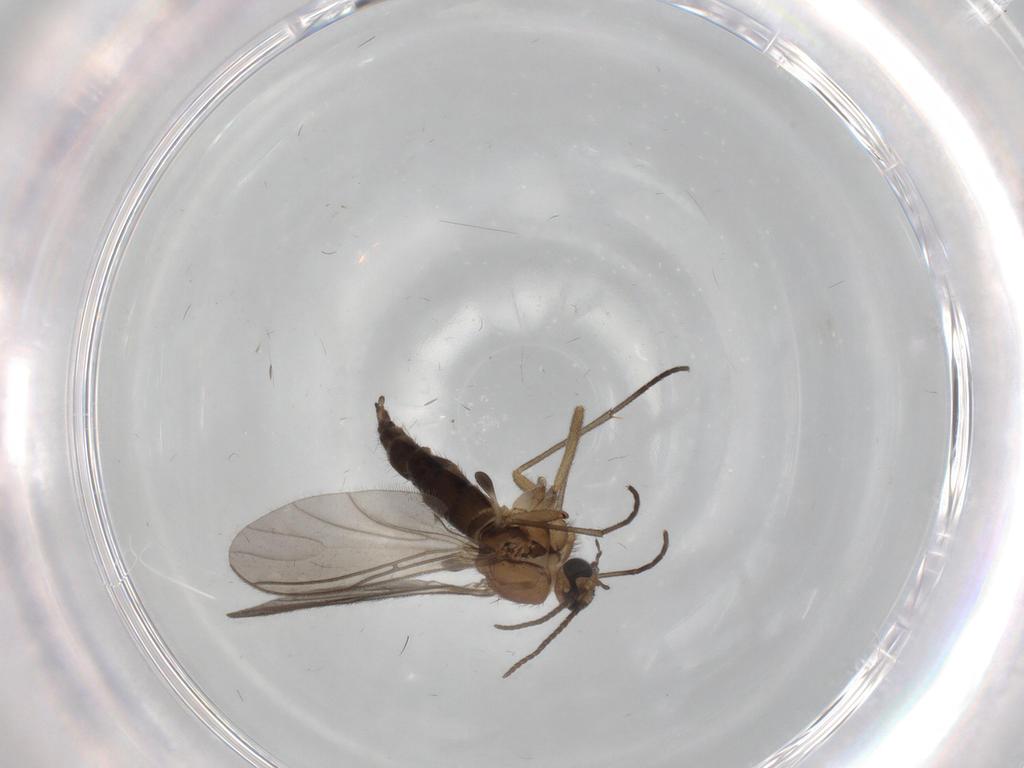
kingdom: Animalia
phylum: Arthropoda
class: Insecta
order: Diptera
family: Sciaridae
